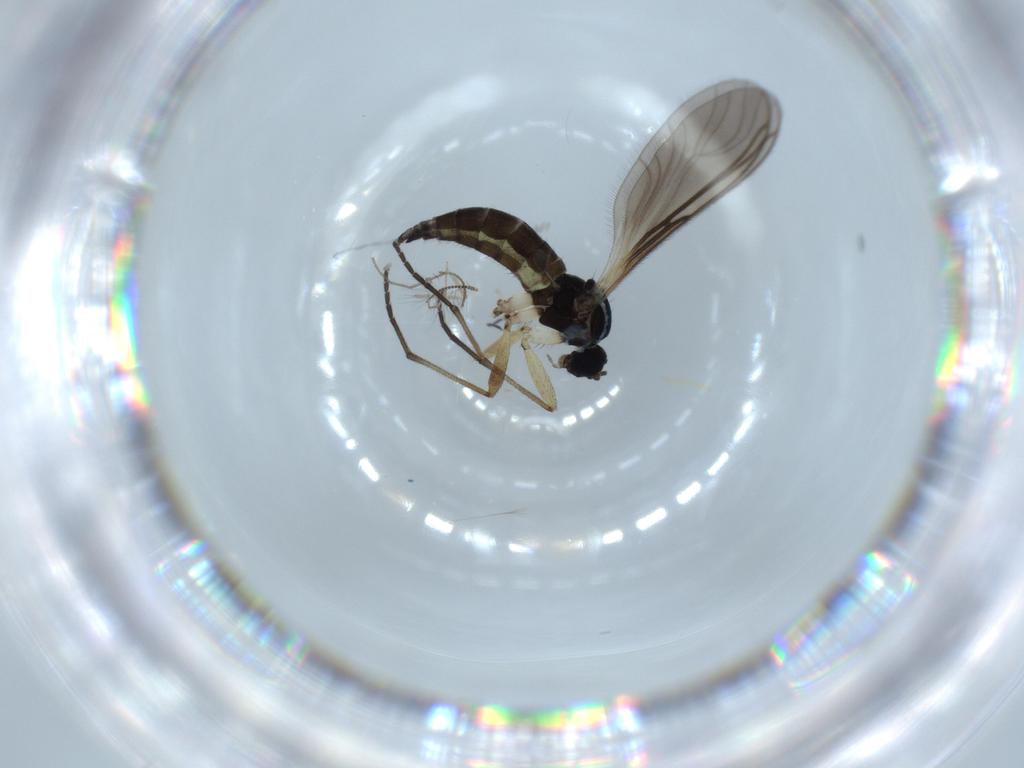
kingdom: Animalia
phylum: Arthropoda
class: Insecta
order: Diptera
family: Sciaridae
